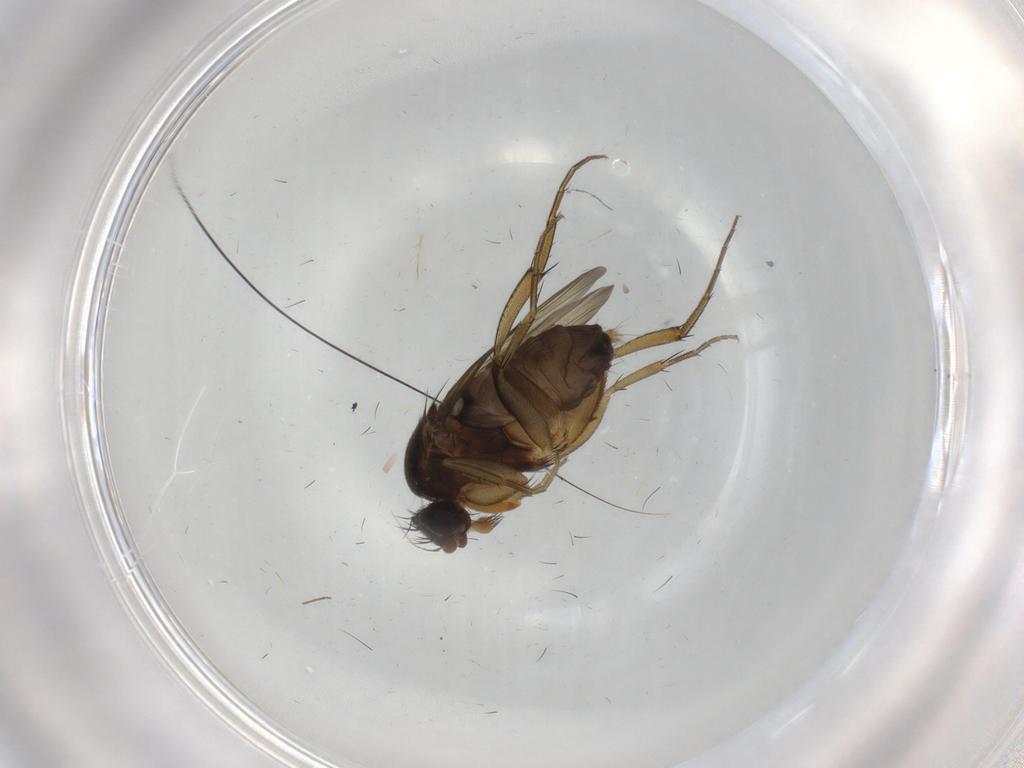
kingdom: Animalia
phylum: Arthropoda
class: Insecta
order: Diptera
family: Chironomidae
